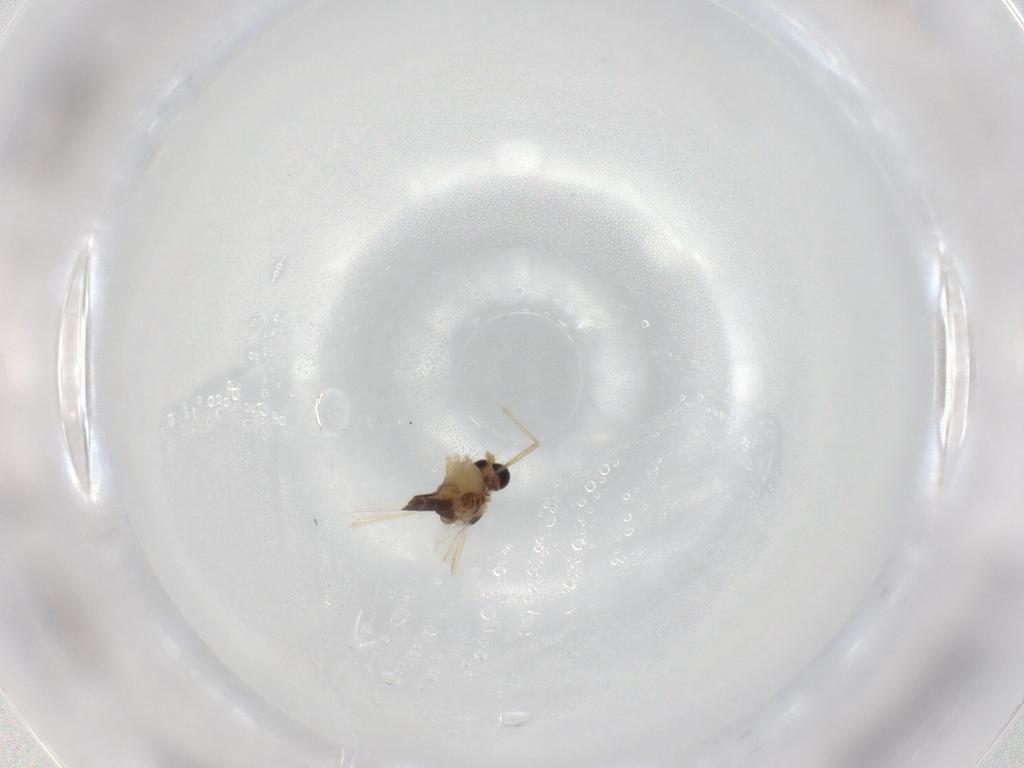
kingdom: Animalia
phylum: Arthropoda
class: Insecta
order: Diptera
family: Chironomidae
